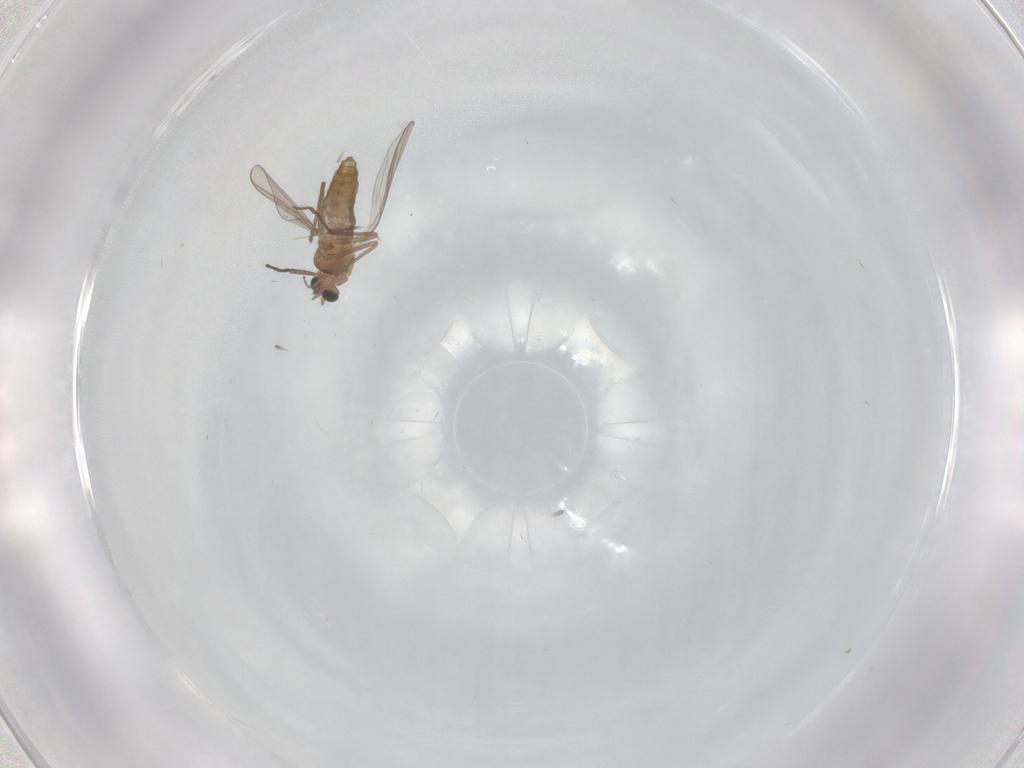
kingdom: Animalia
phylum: Arthropoda
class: Insecta
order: Diptera
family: Chironomidae
